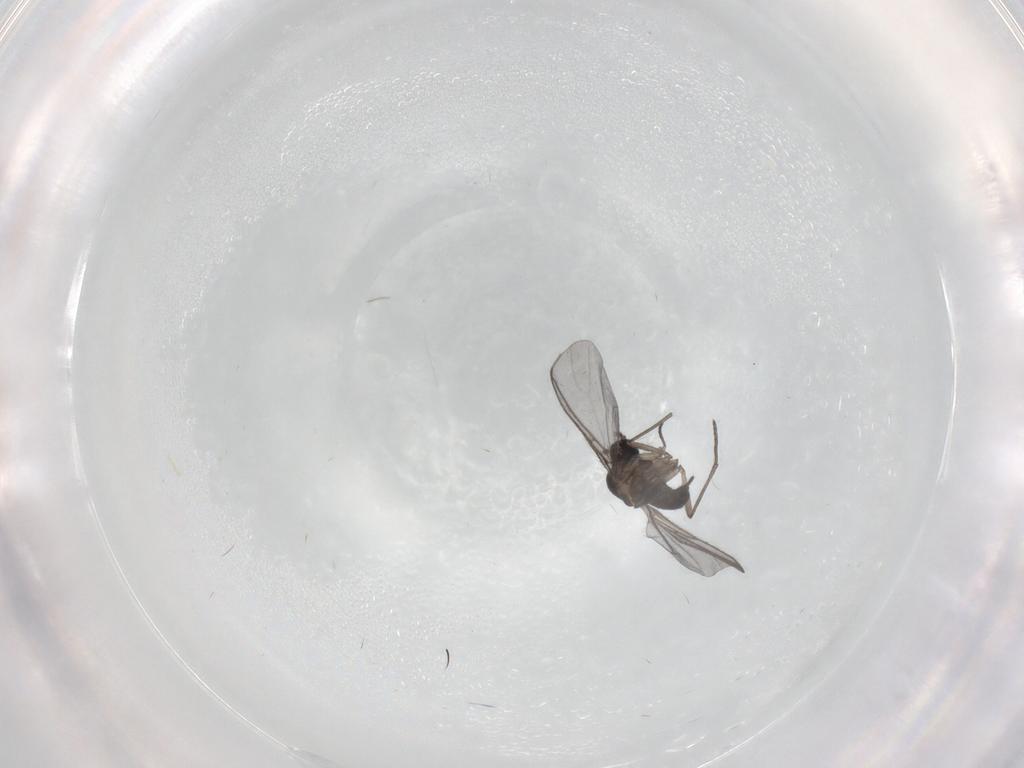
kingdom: Animalia
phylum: Arthropoda
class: Insecta
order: Diptera
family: Sciaridae
